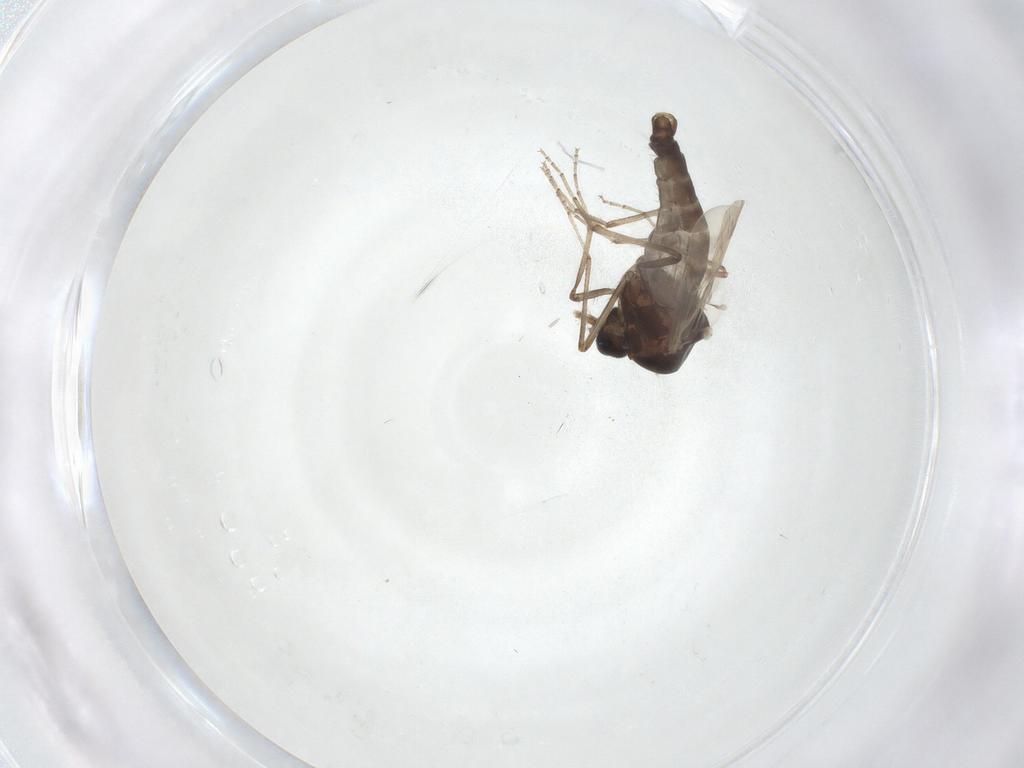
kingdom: Animalia
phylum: Arthropoda
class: Insecta
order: Diptera
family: Ceratopogonidae
